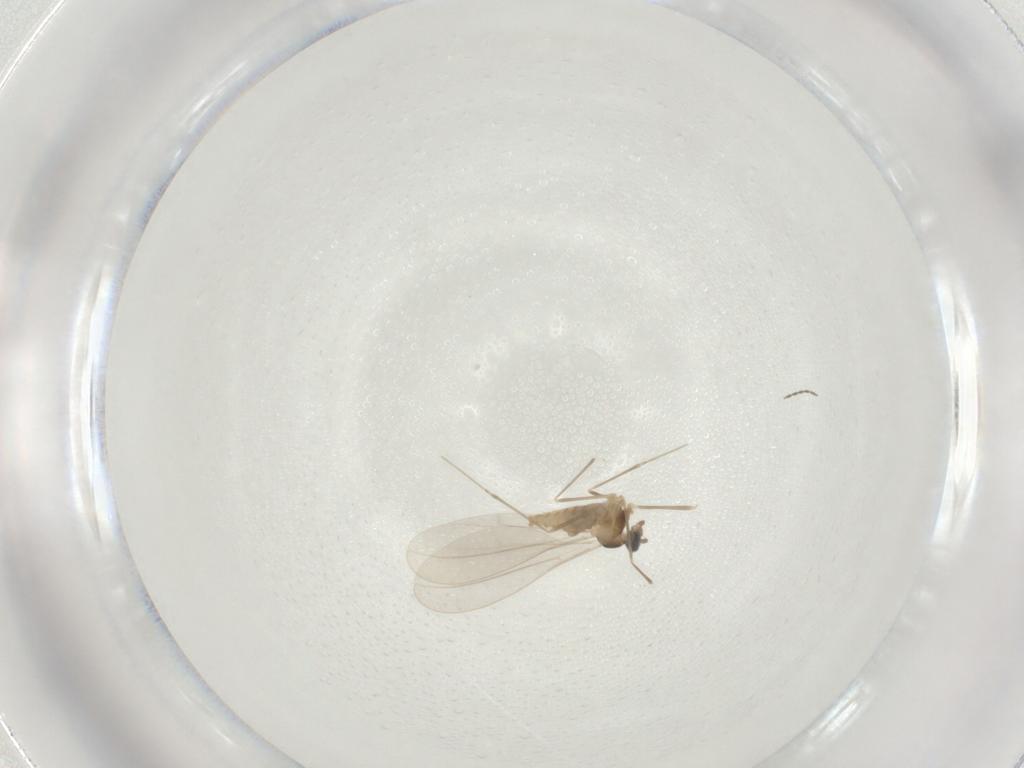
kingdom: Animalia
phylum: Arthropoda
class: Insecta
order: Diptera
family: Cecidomyiidae
